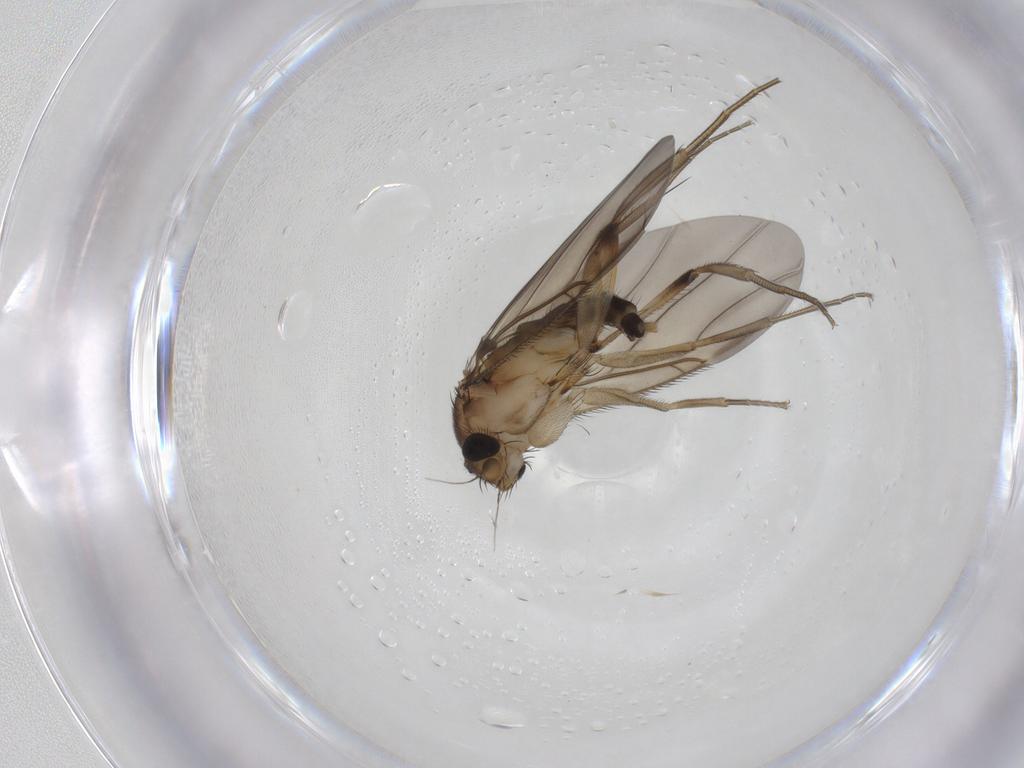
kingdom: Animalia
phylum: Arthropoda
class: Insecta
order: Diptera
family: Phoridae
